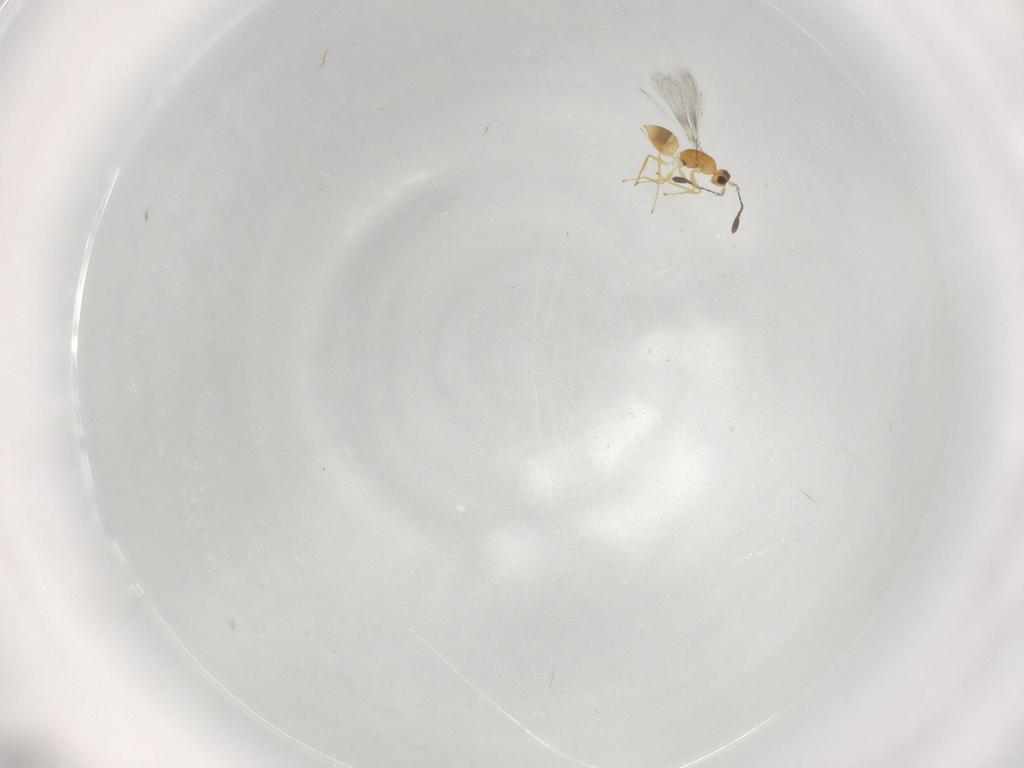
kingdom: Animalia
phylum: Arthropoda
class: Insecta
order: Hymenoptera
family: Mymaridae
